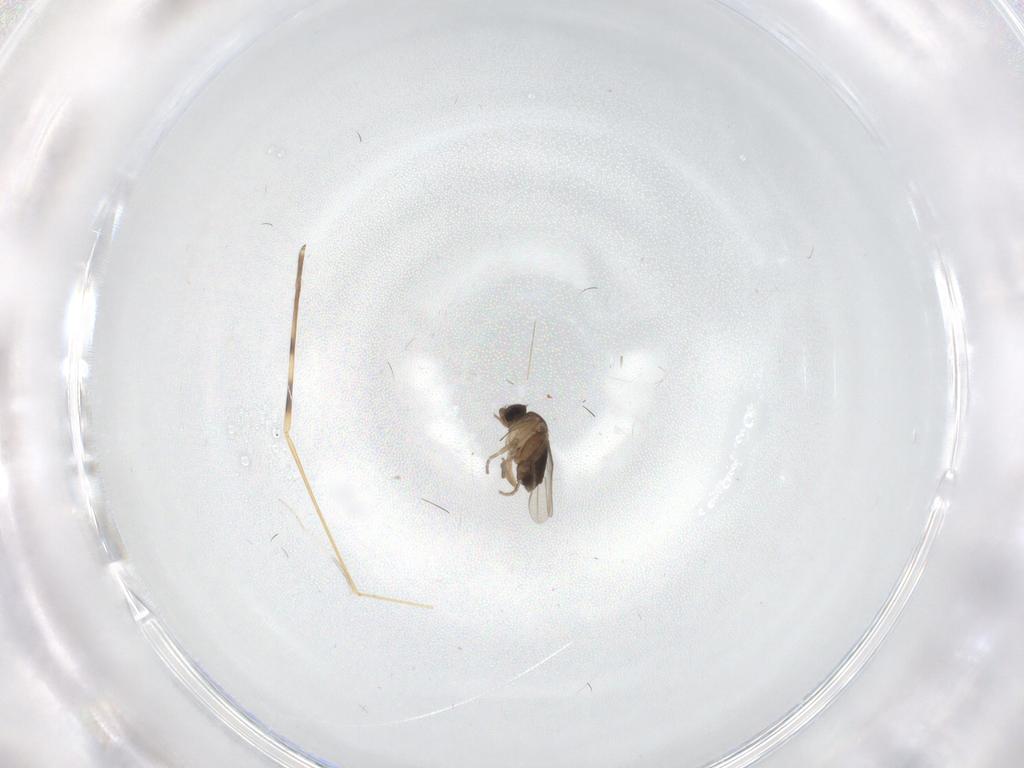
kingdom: Animalia
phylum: Arthropoda
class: Insecta
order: Diptera
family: Limoniidae
